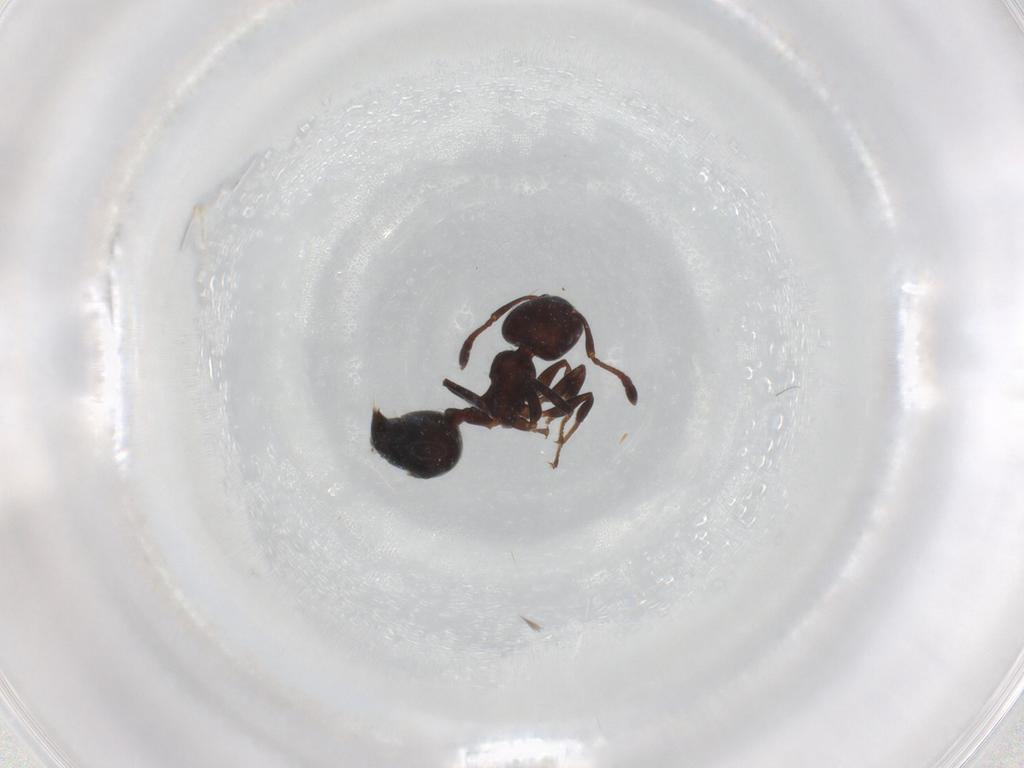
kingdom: Animalia
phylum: Arthropoda
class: Insecta
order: Hymenoptera
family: Formicidae
